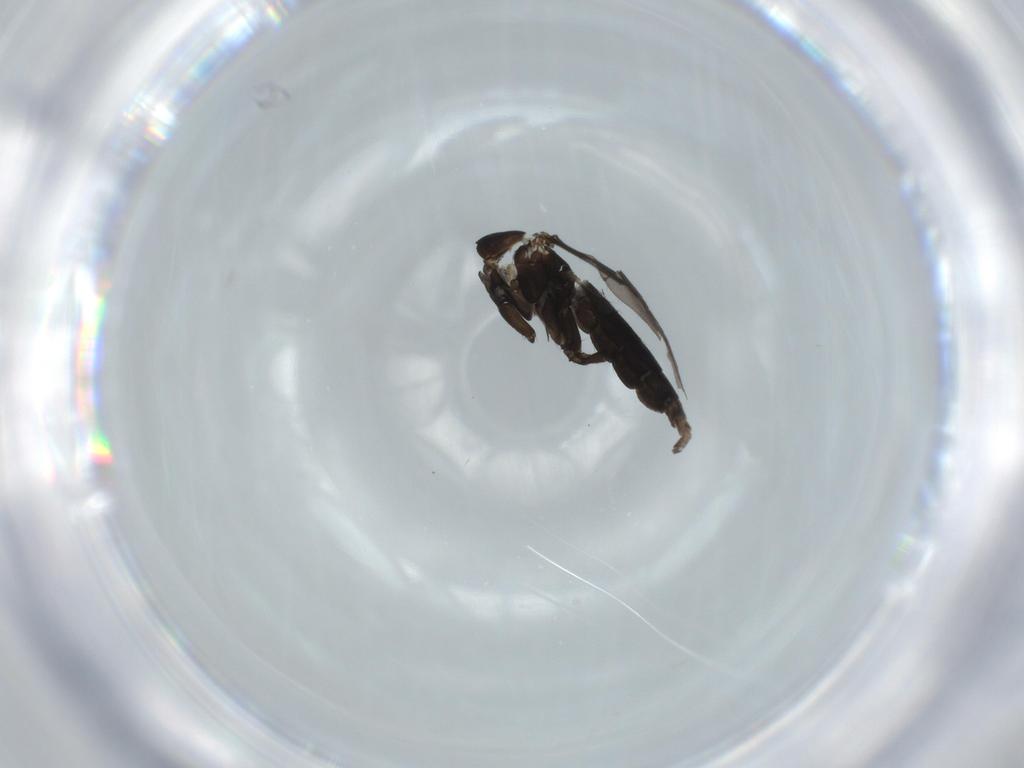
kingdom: Animalia
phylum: Arthropoda
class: Insecta
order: Diptera
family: Sciaridae
